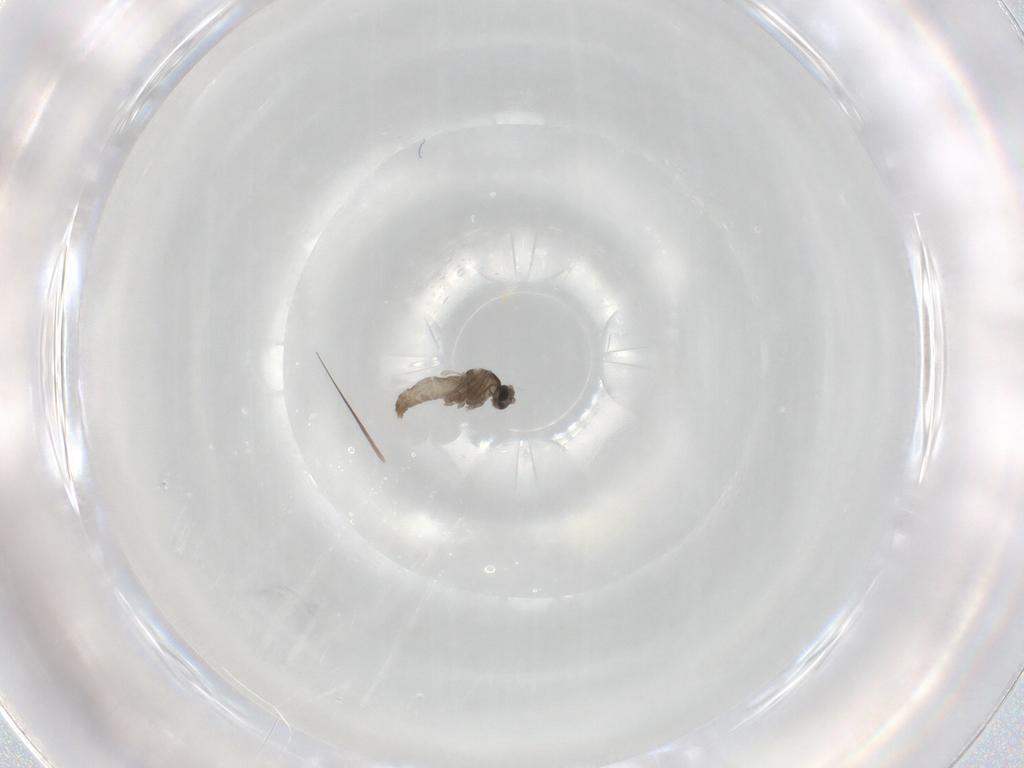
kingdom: Animalia
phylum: Arthropoda
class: Insecta
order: Diptera
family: Cecidomyiidae
